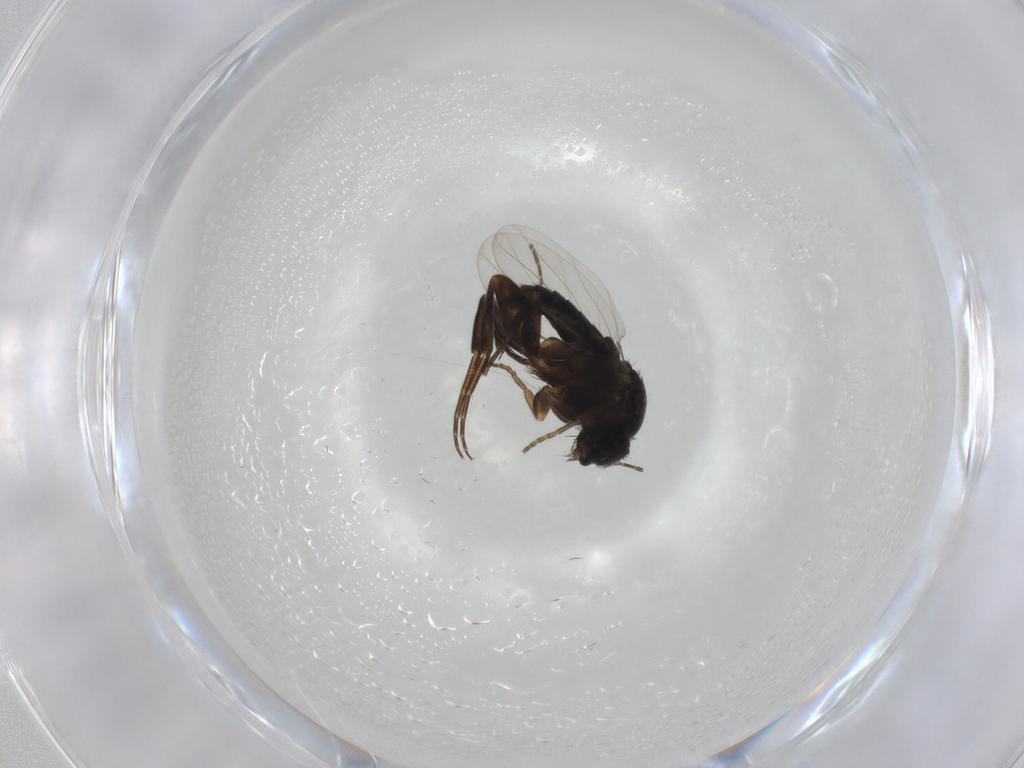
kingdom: Animalia
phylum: Arthropoda
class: Insecta
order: Diptera
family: Phoridae
